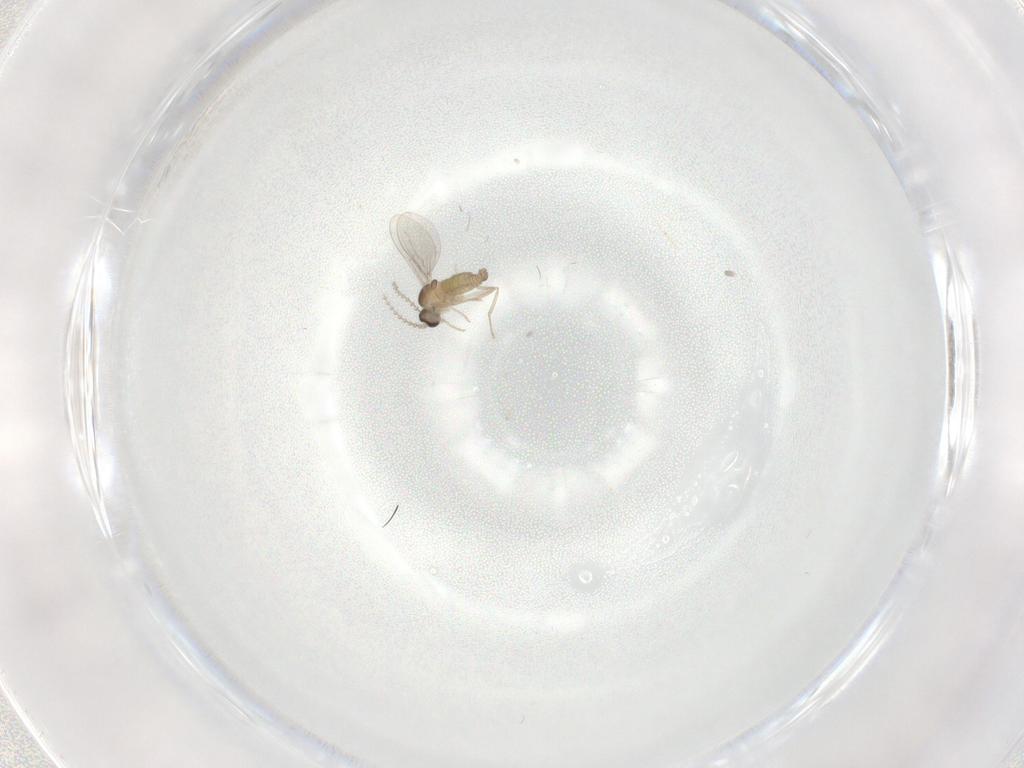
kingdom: Animalia
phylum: Arthropoda
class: Insecta
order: Diptera
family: Cecidomyiidae
